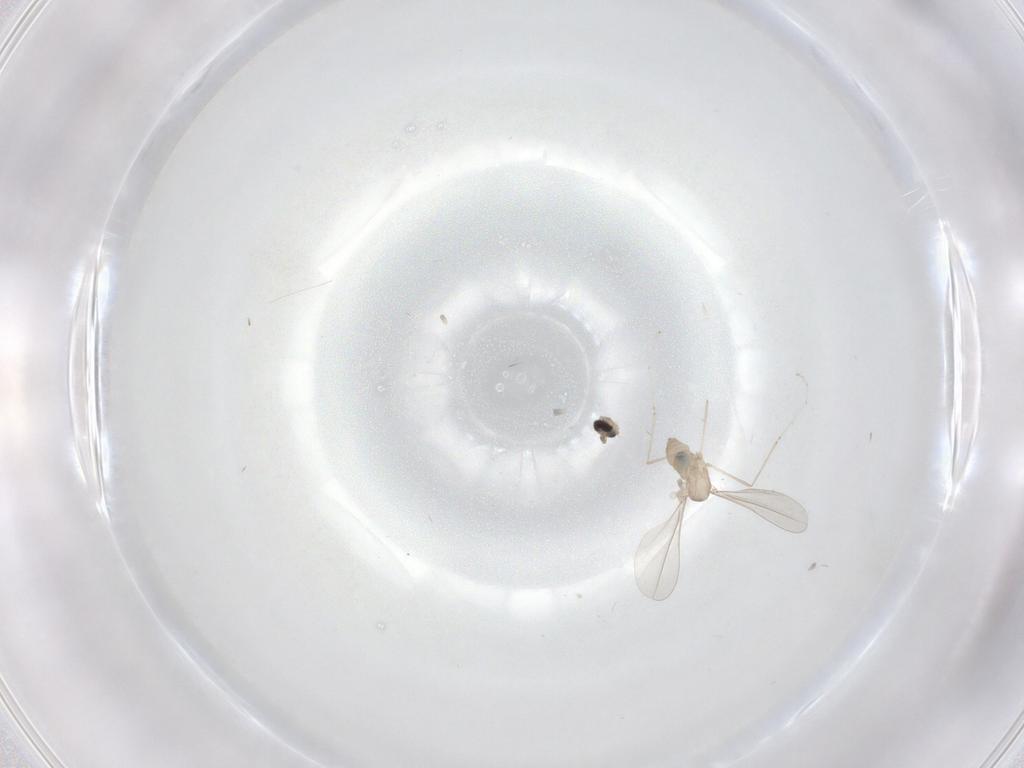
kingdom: Animalia
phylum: Arthropoda
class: Insecta
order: Diptera
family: Cecidomyiidae
